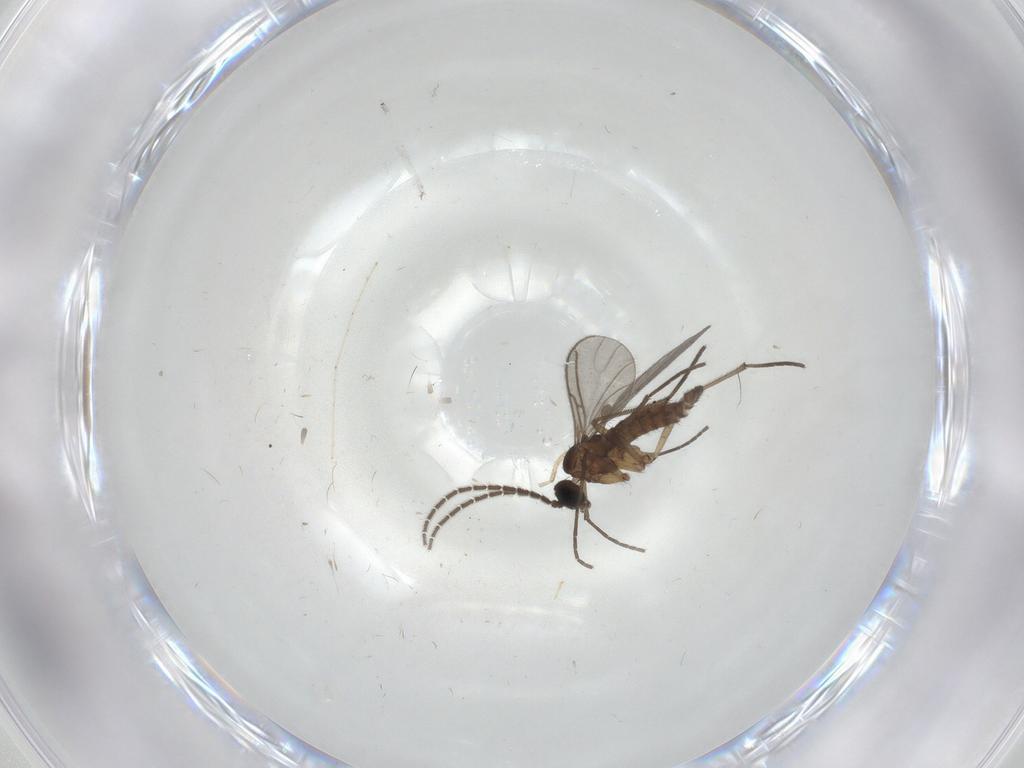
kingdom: Animalia
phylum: Arthropoda
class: Insecta
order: Diptera
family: Sciaridae
